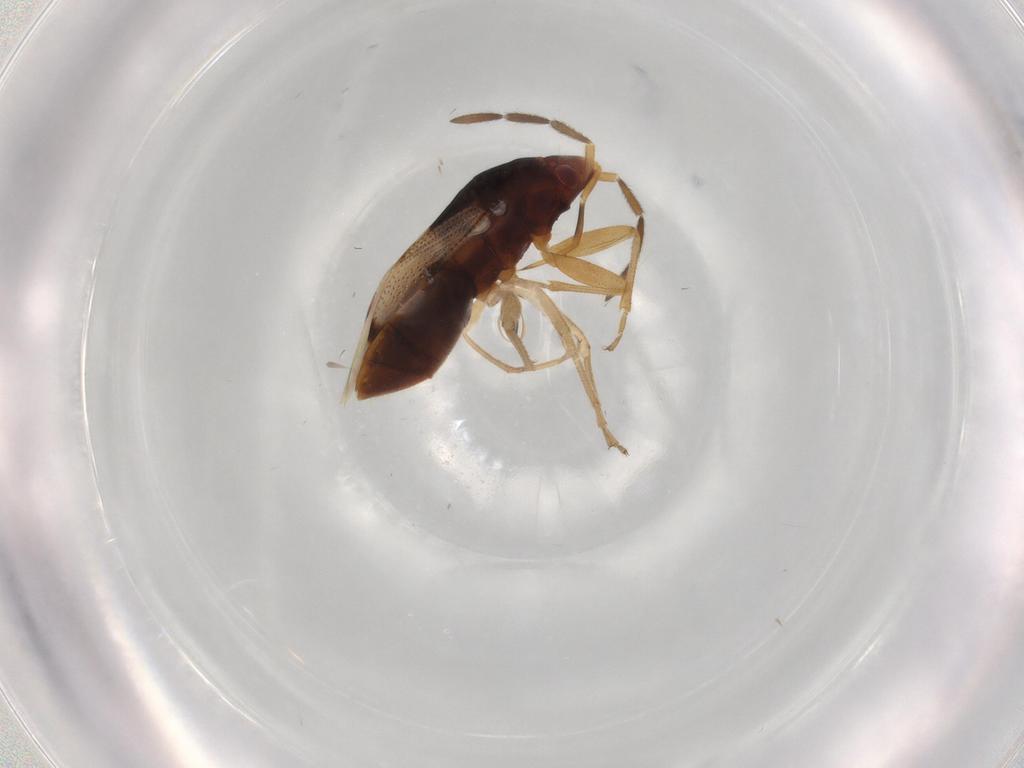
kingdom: Animalia
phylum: Arthropoda
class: Insecta
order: Hemiptera
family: Rhyparochromidae
